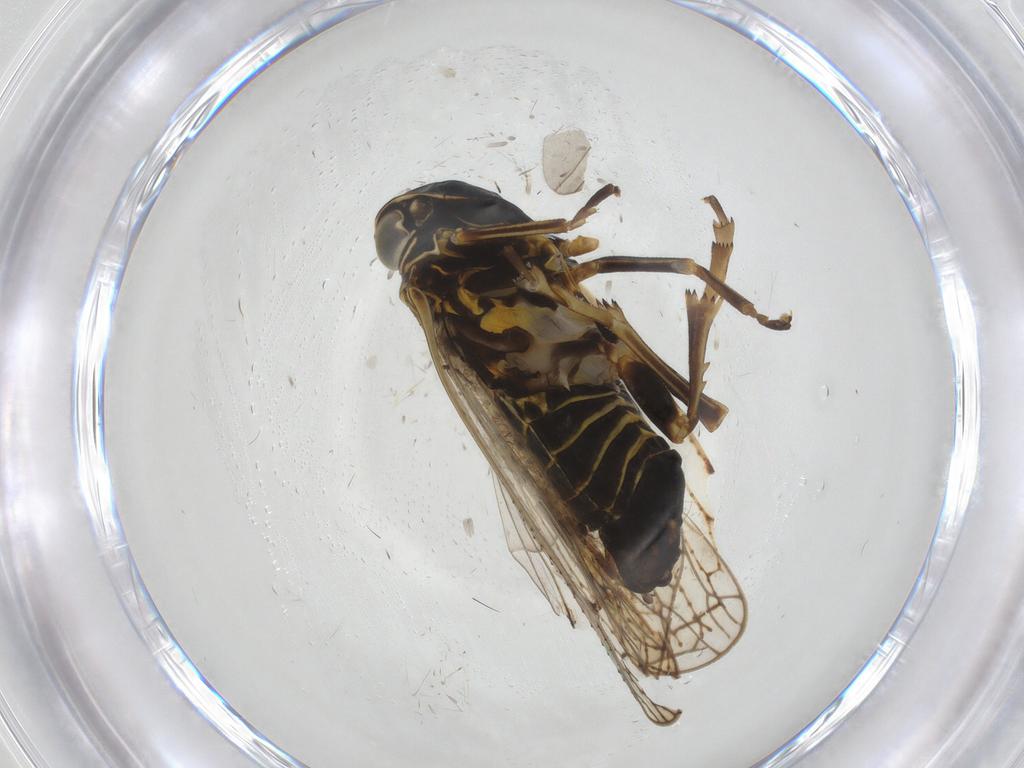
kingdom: Animalia
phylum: Arthropoda
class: Insecta
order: Hemiptera
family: Cixiidae
